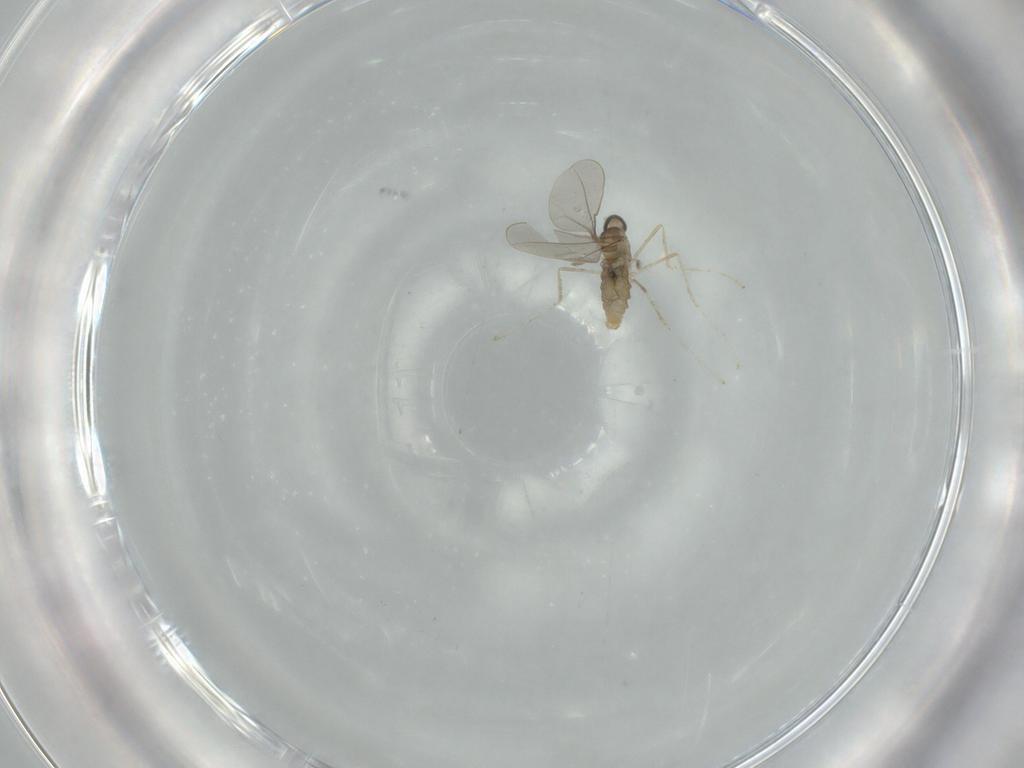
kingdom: Animalia
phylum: Arthropoda
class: Insecta
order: Diptera
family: Cecidomyiidae
